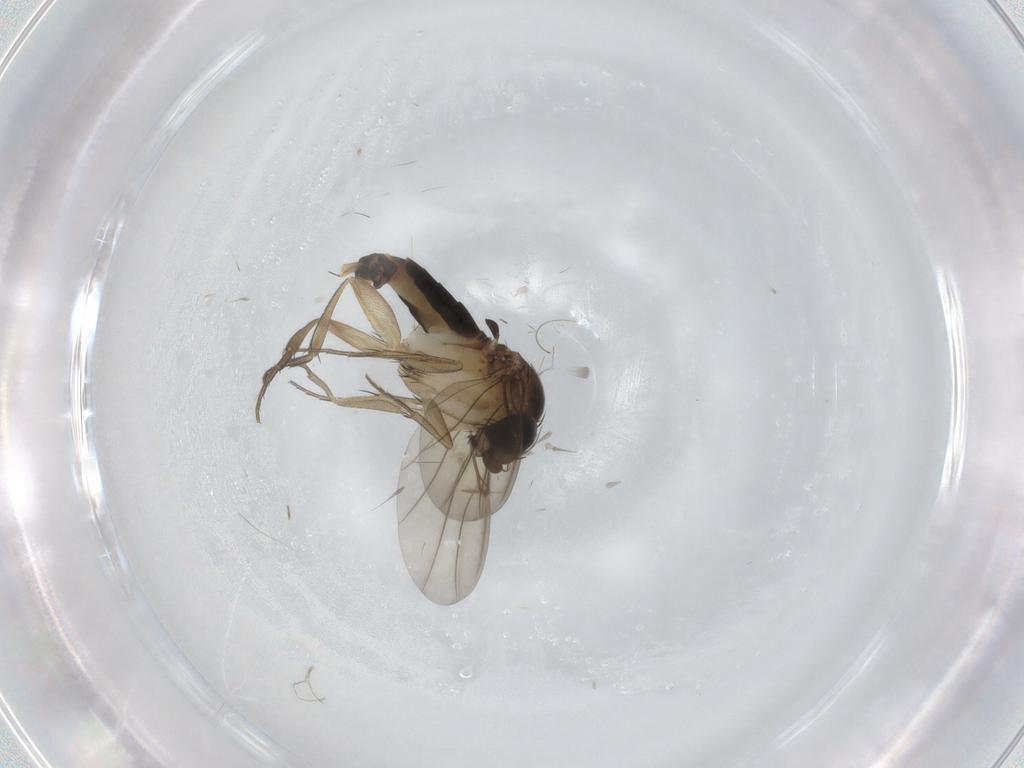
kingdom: Animalia
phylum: Arthropoda
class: Insecta
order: Diptera
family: Phoridae
